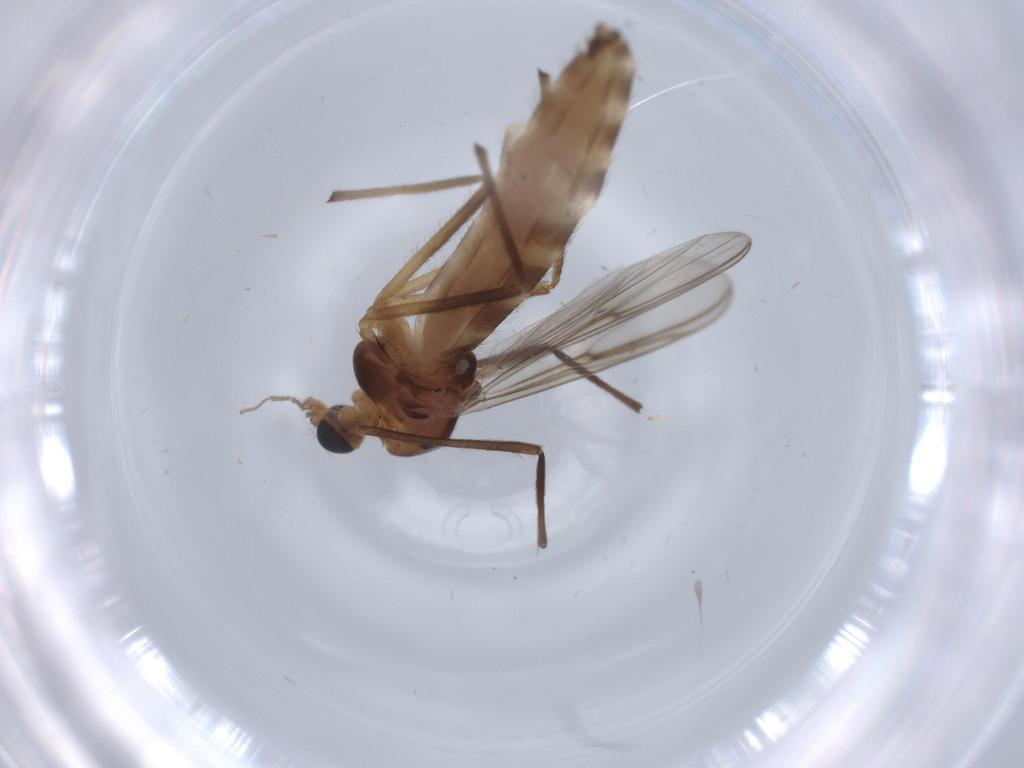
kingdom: Animalia
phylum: Arthropoda
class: Insecta
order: Diptera
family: Chironomidae
